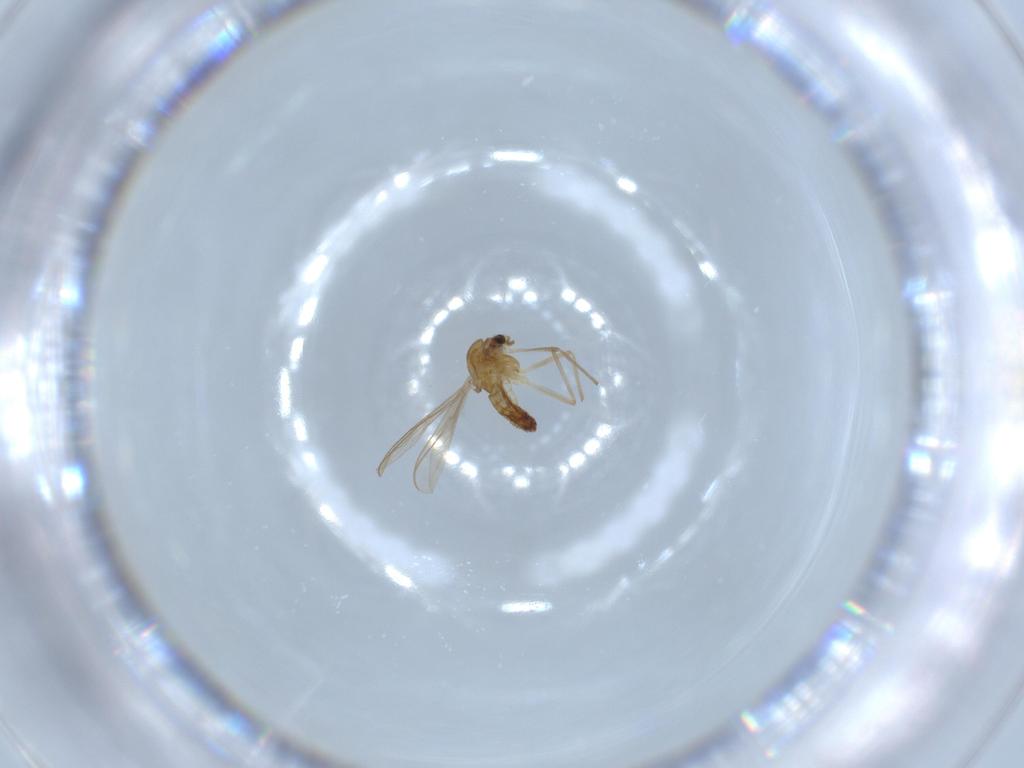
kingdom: Animalia
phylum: Arthropoda
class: Insecta
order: Diptera
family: Chironomidae
